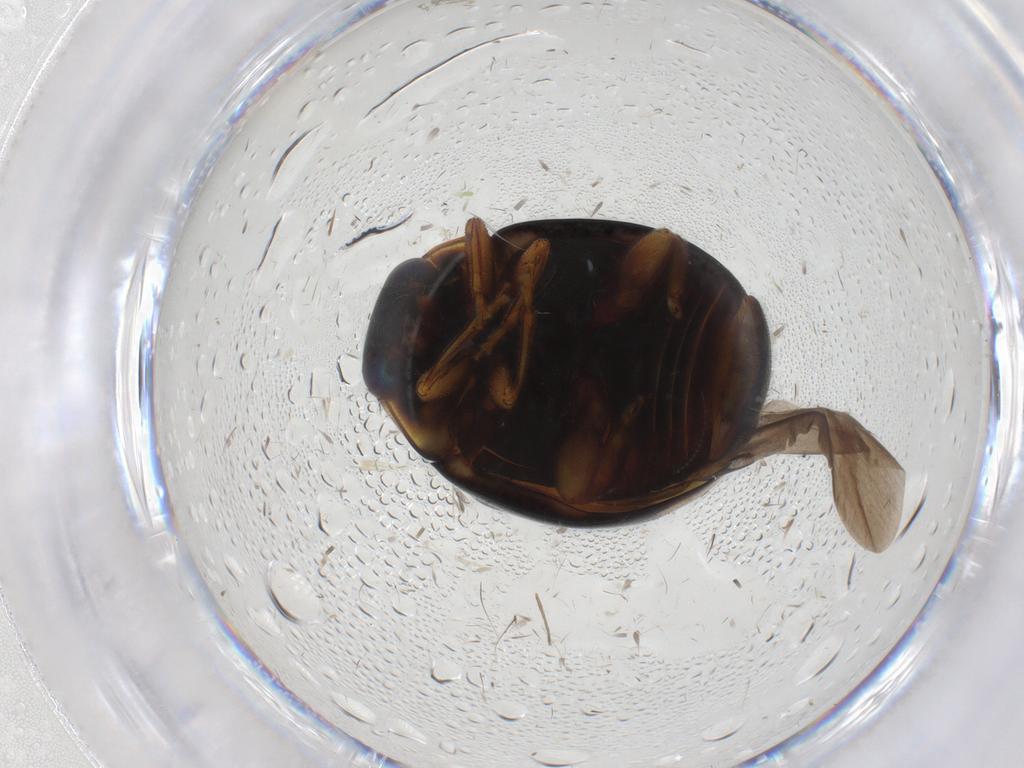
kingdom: Animalia
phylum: Arthropoda
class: Insecta
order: Coleoptera
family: Coccinellidae
